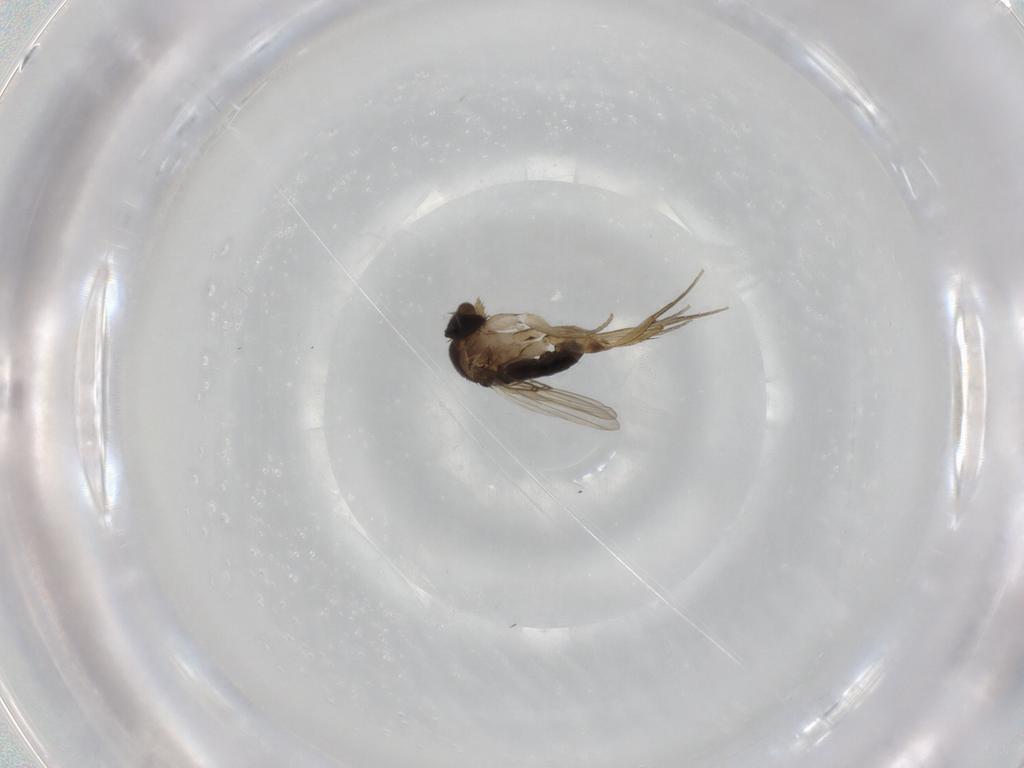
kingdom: Animalia
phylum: Arthropoda
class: Insecta
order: Diptera
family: Phoridae
